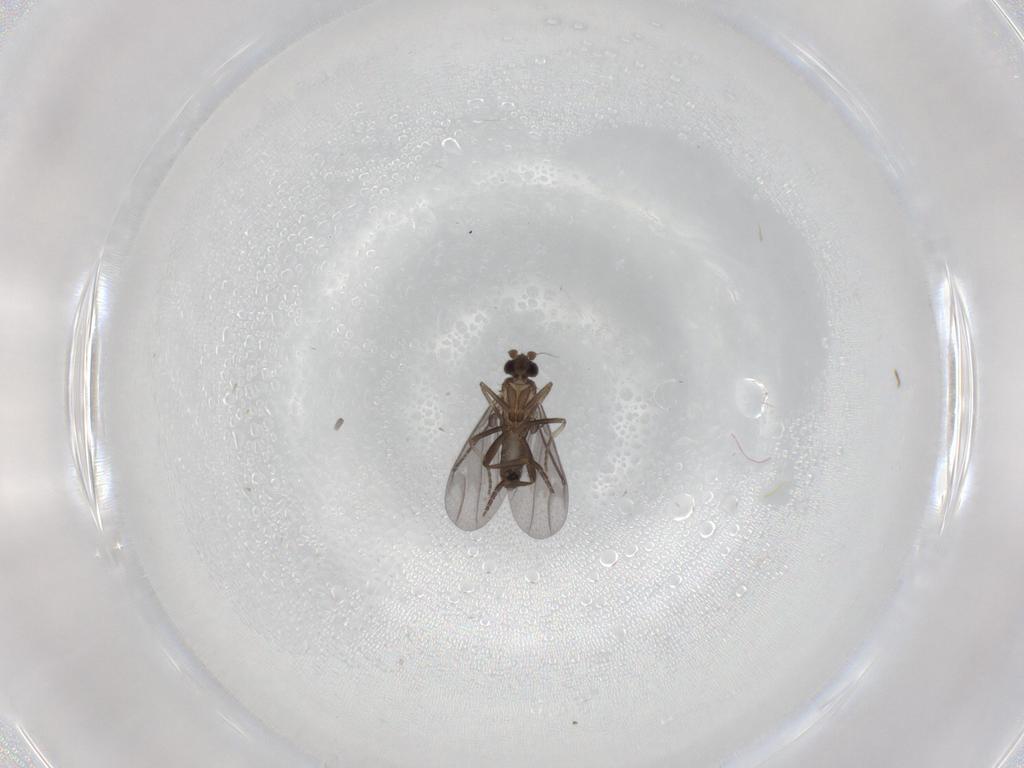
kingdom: Animalia
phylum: Arthropoda
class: Insecta
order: Diptera
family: Phoridae
